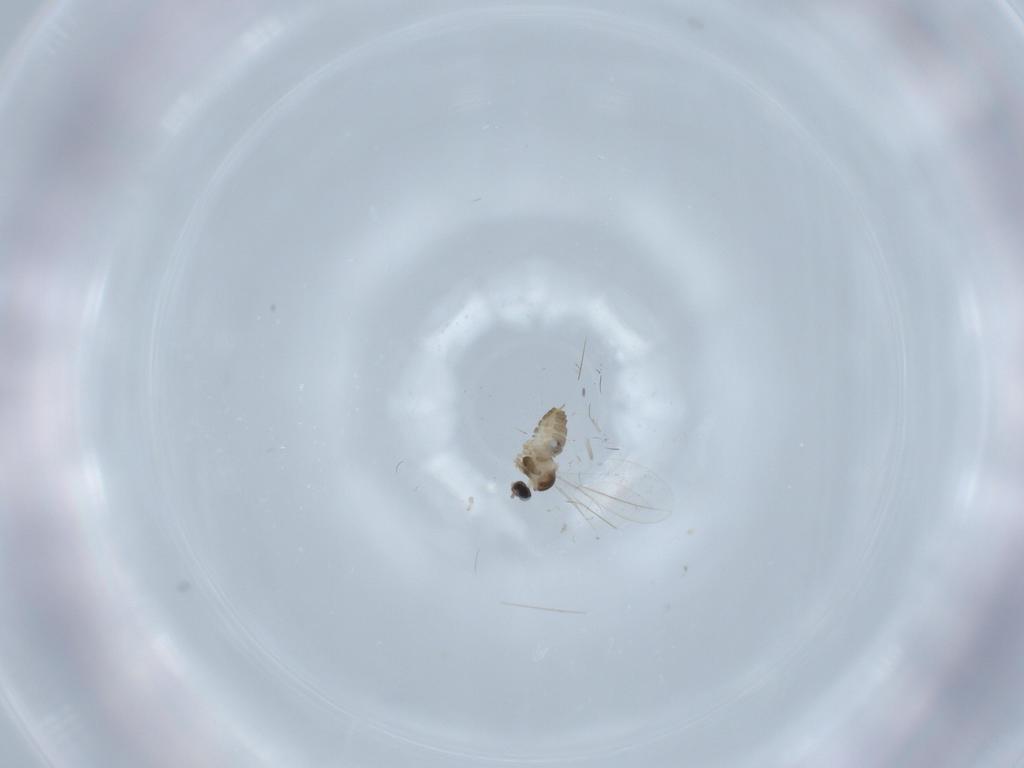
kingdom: Animalia
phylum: Arthropoda
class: Insecta
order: Diptera
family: Cecidomyiidae
